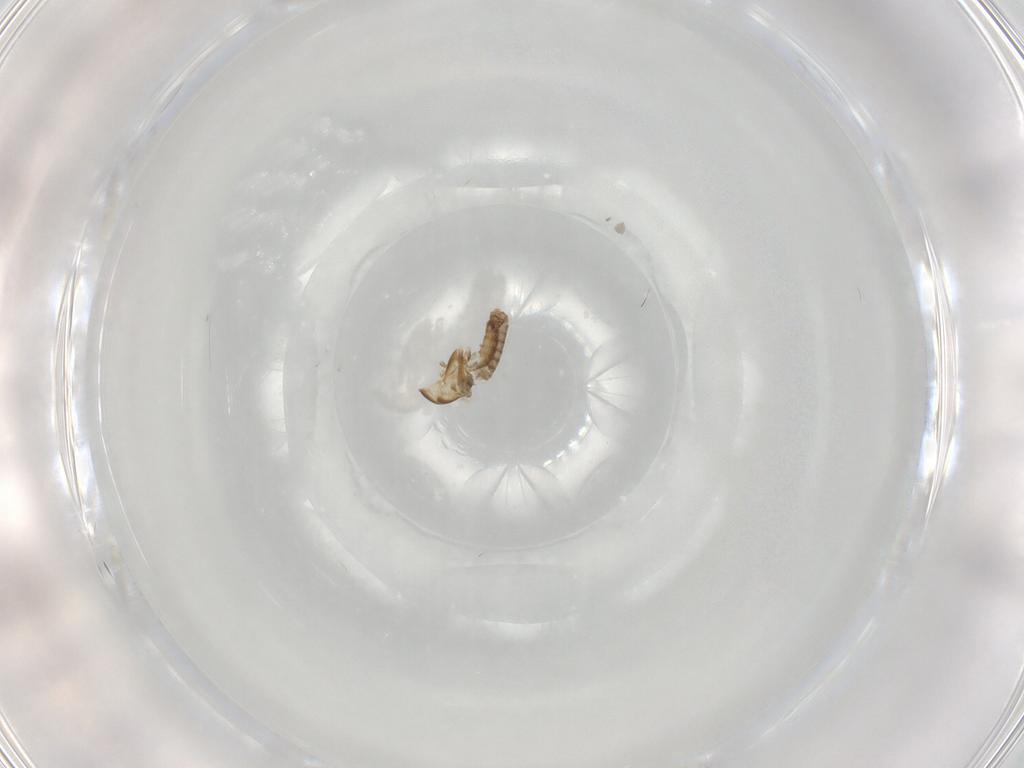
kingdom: Animalia
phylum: Arthropoda
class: Insecta
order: Diptera
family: Chironomidae
